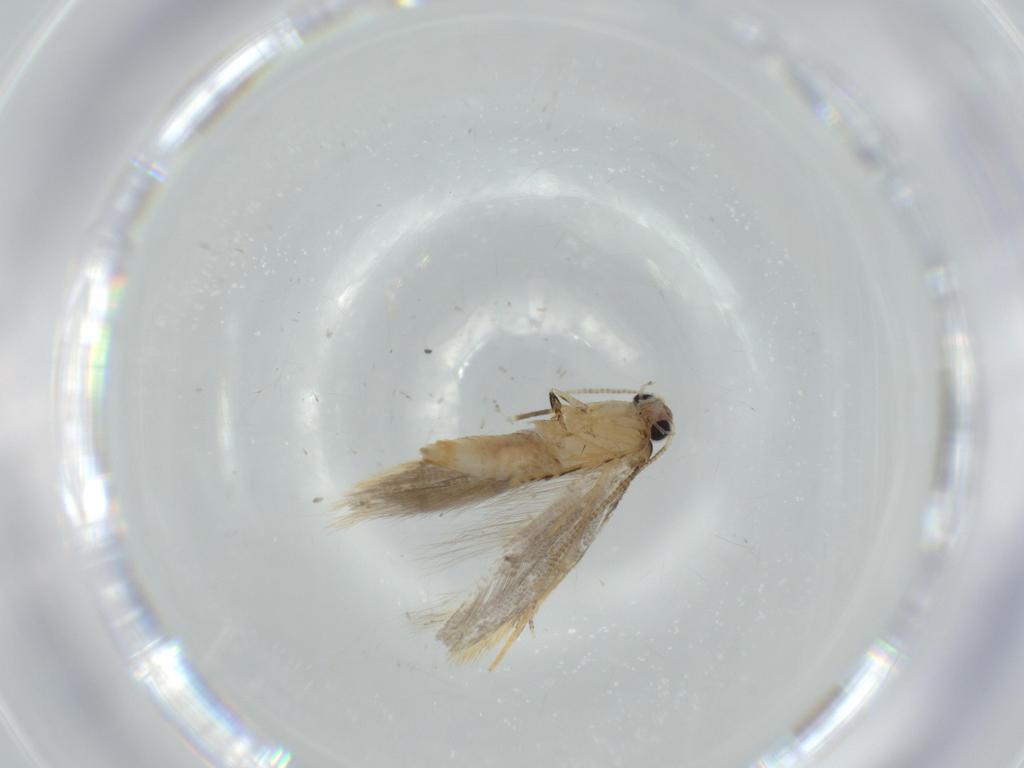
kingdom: Animalia
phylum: Arthropoda
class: Insecta
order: Lepidoptera
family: Tineidae
